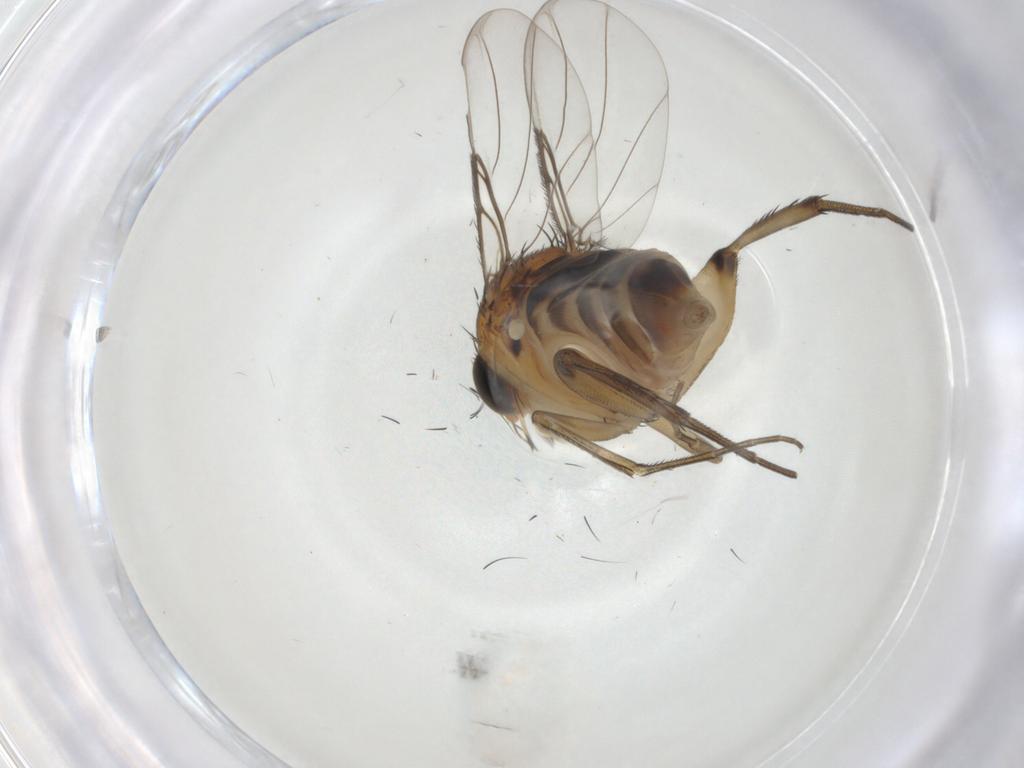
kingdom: Animalia
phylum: Arthropoda
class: Insecta
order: Diptera
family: Phoridae
